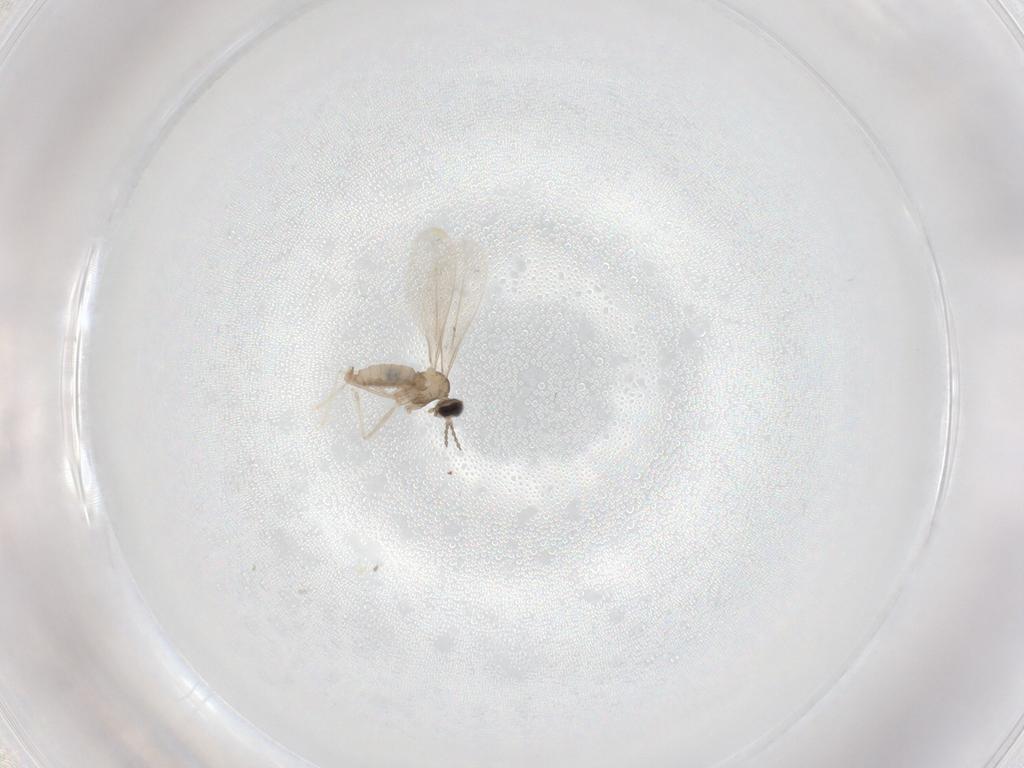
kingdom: Animalia
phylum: Arthropoda
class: Insecta
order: Diptera
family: Cecidomyiidae
